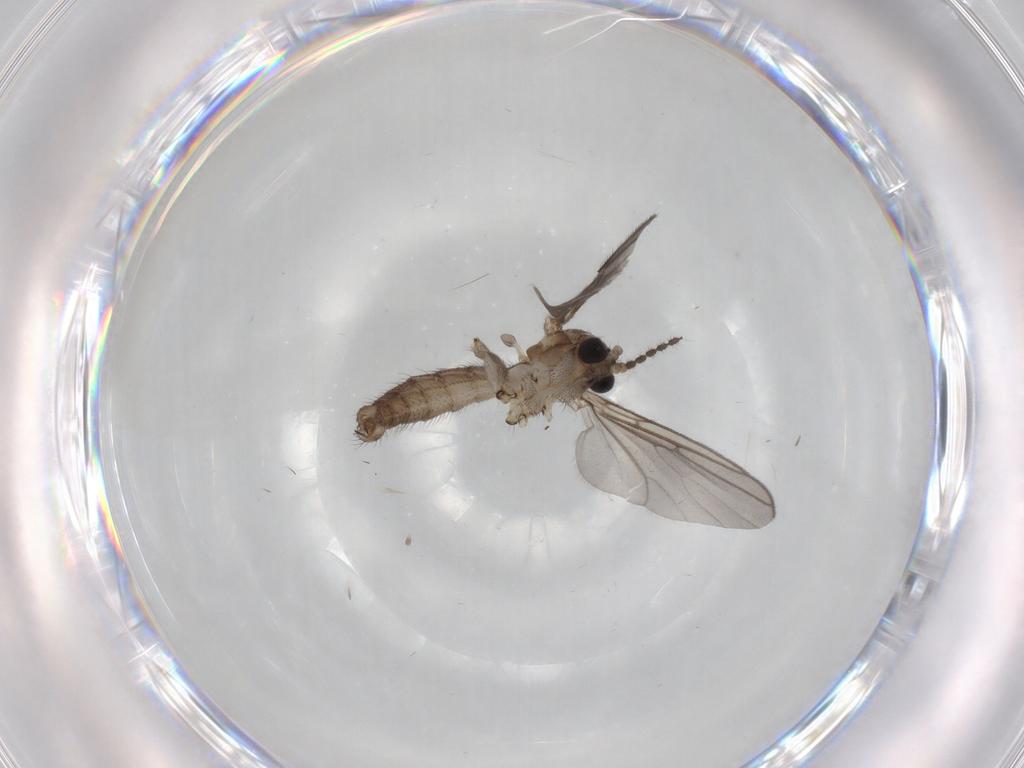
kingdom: Animalia
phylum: Arthropoda
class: Insecta
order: Diptera
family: Mycetophilidae
